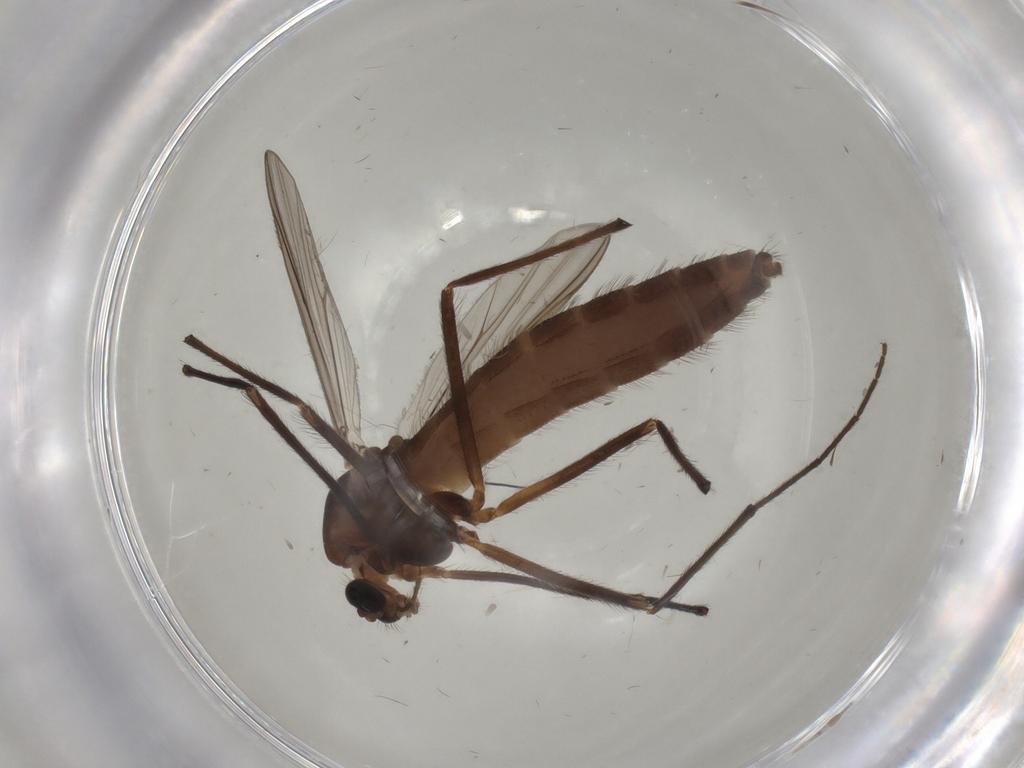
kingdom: Animalia
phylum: Arthropoda
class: Insecta
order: Diptera
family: Chironomidae
